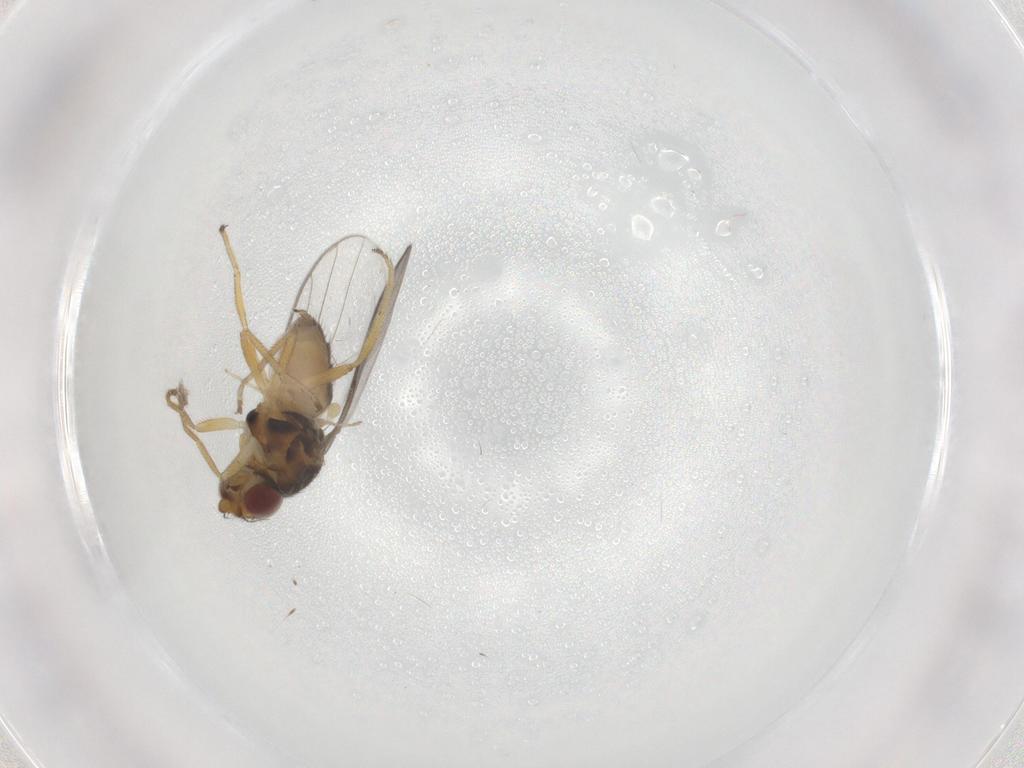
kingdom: Animalia
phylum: Arthropoda
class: Insecta
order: Diptera
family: Chloropidae
